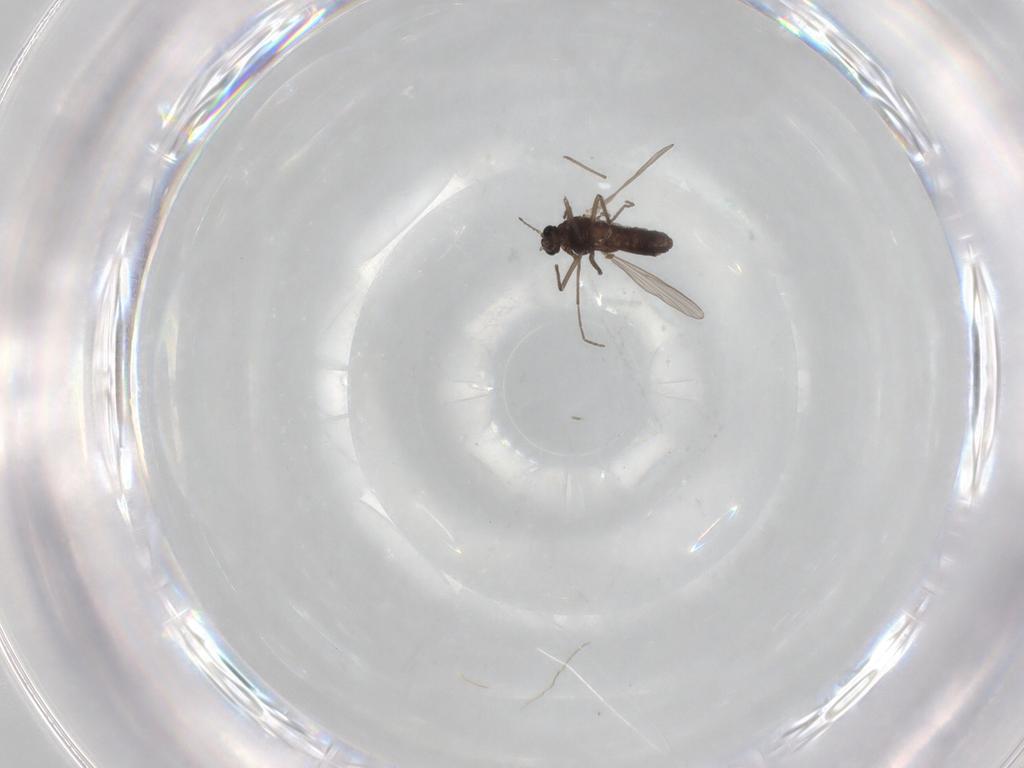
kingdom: Animalia
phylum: Arthropoda
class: Insecta
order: Diptera
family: Chironomidae
